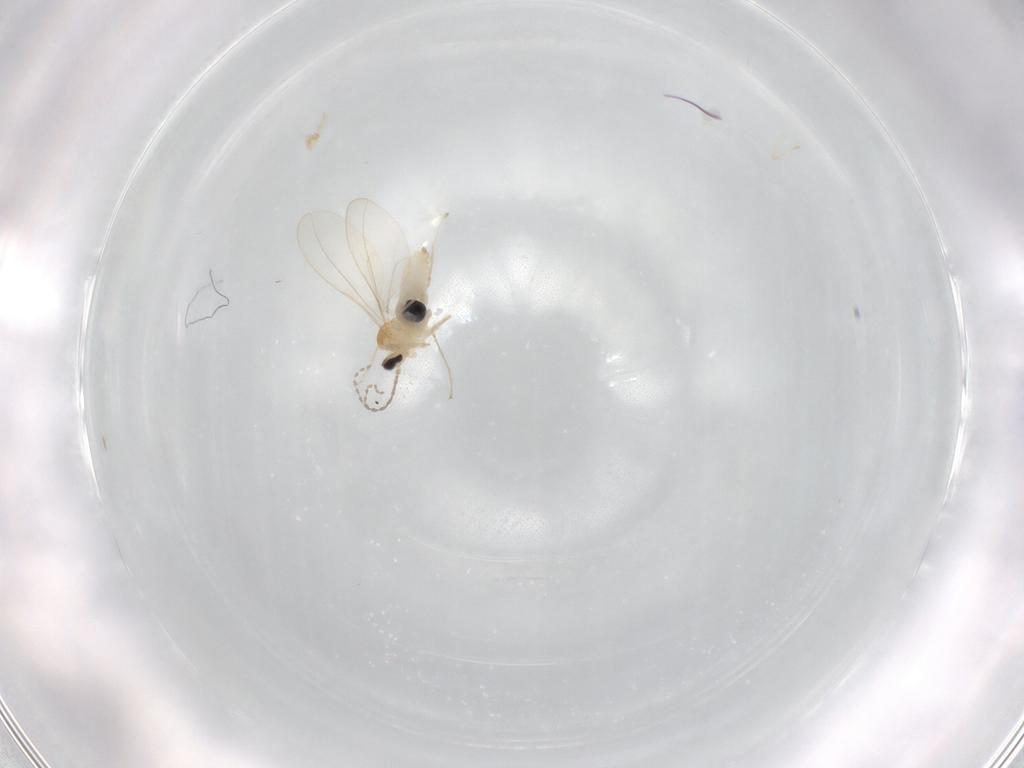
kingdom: Animalia
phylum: Arthropoda
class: Insecta
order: Diptera
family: Cecidomyiidae
